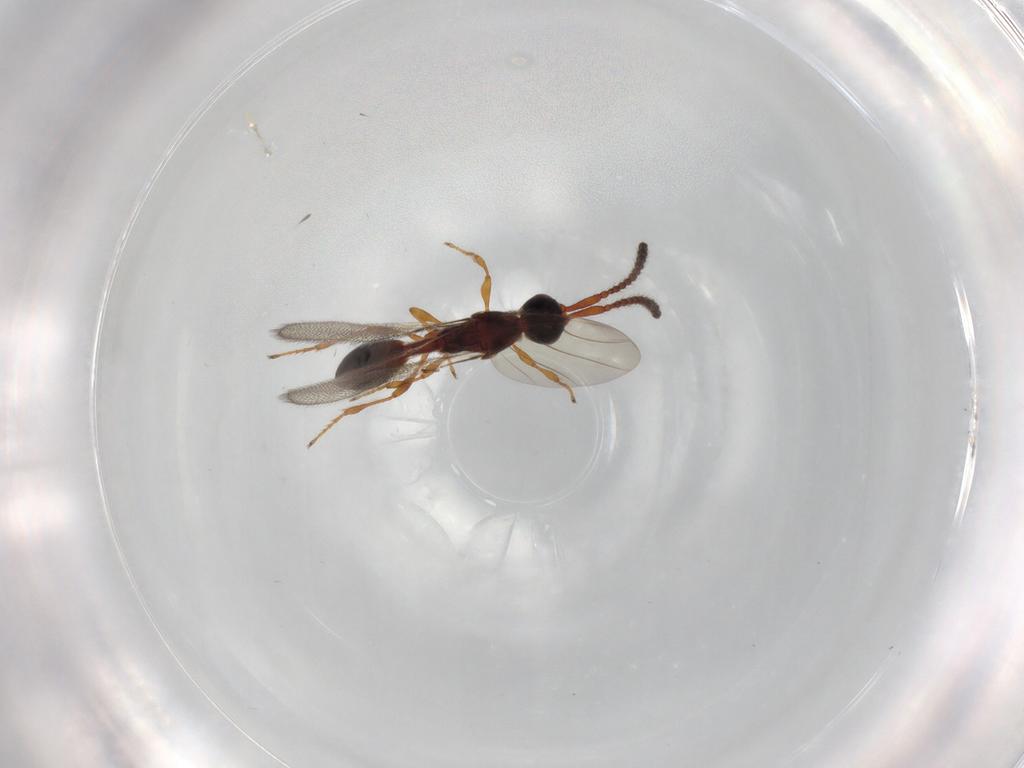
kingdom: Animalia
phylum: Arthropoda
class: Insecta
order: Hymenoptera
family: Diapriidae
